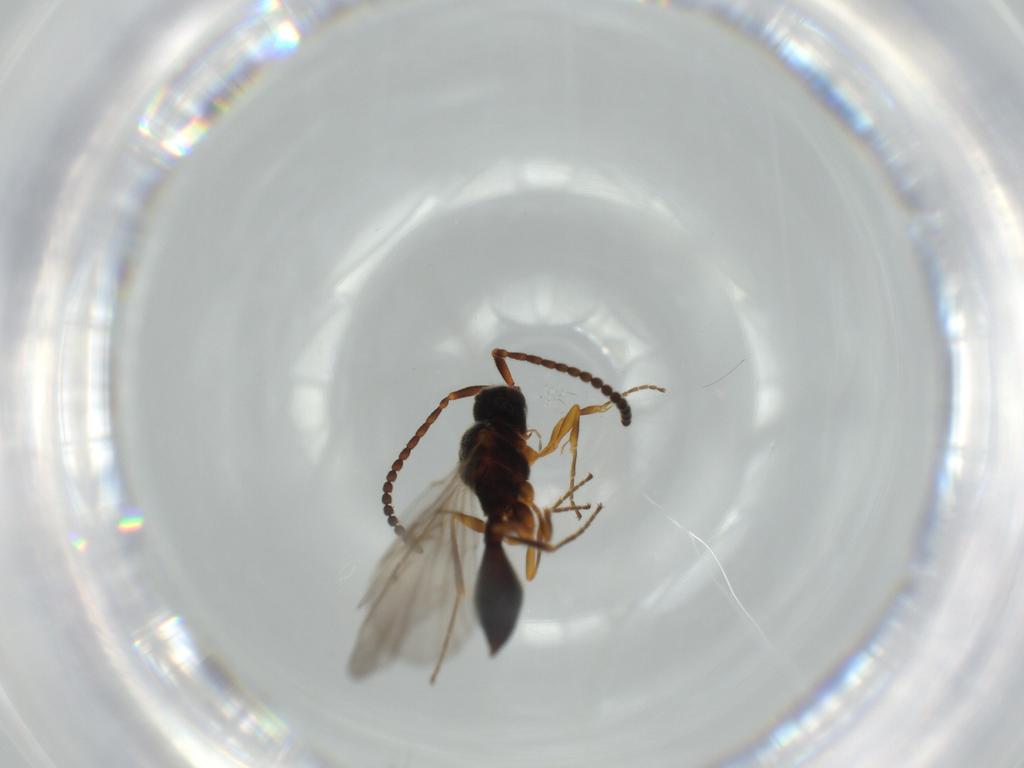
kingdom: Animalia
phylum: Arthropoda
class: Insecta
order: Hymenoptera
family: Diapriidae
